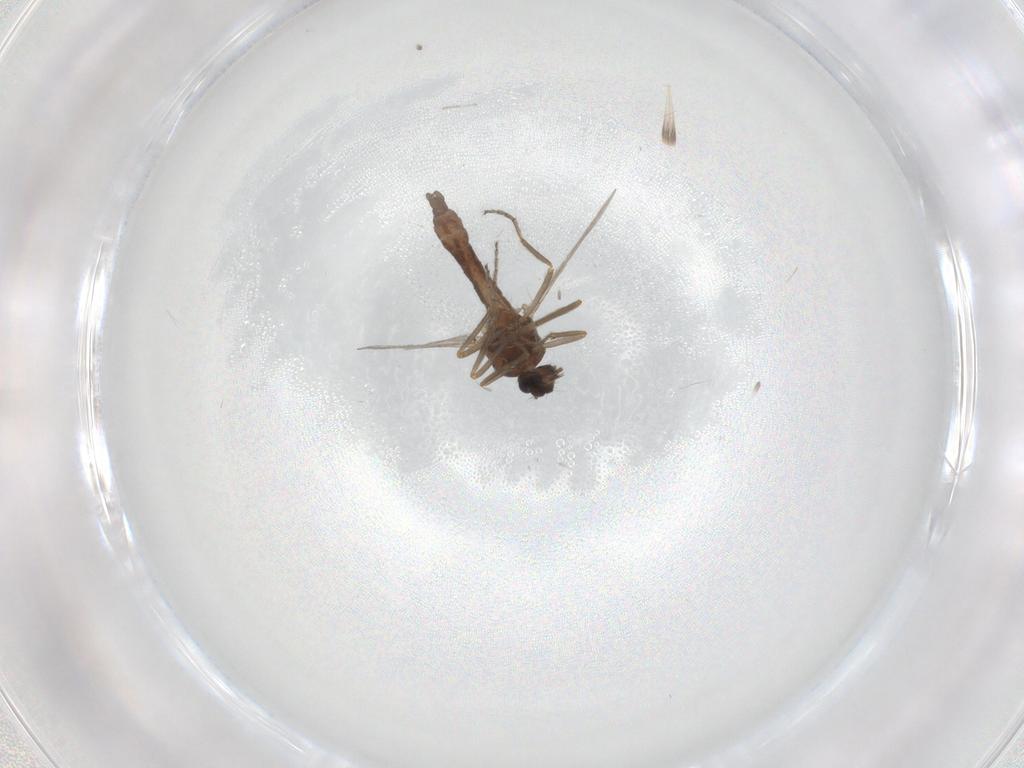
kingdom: Animalia
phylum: Arthropoda
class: Insecta
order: Diptera
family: Ceratopogonidae
